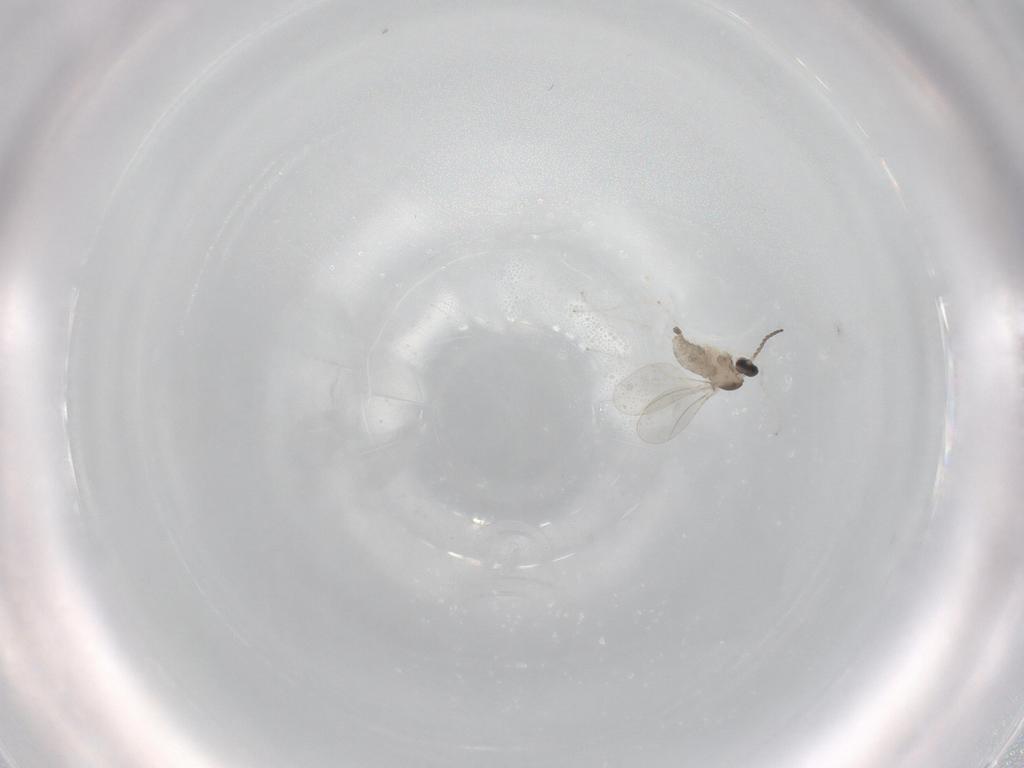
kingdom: Animalia
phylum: Arthropoda
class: Insecta
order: Diptera
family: Cecidomyiidae
